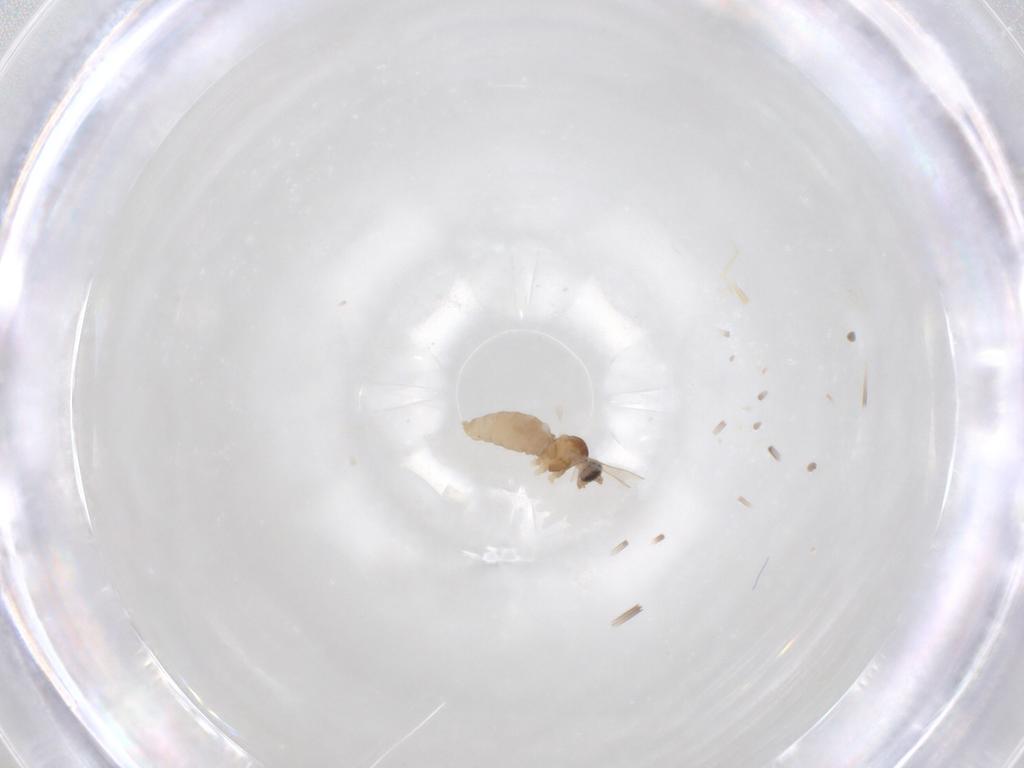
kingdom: Animalia
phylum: Arthropoda
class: Insecta
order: Diptera
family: Cecidomyiidae
